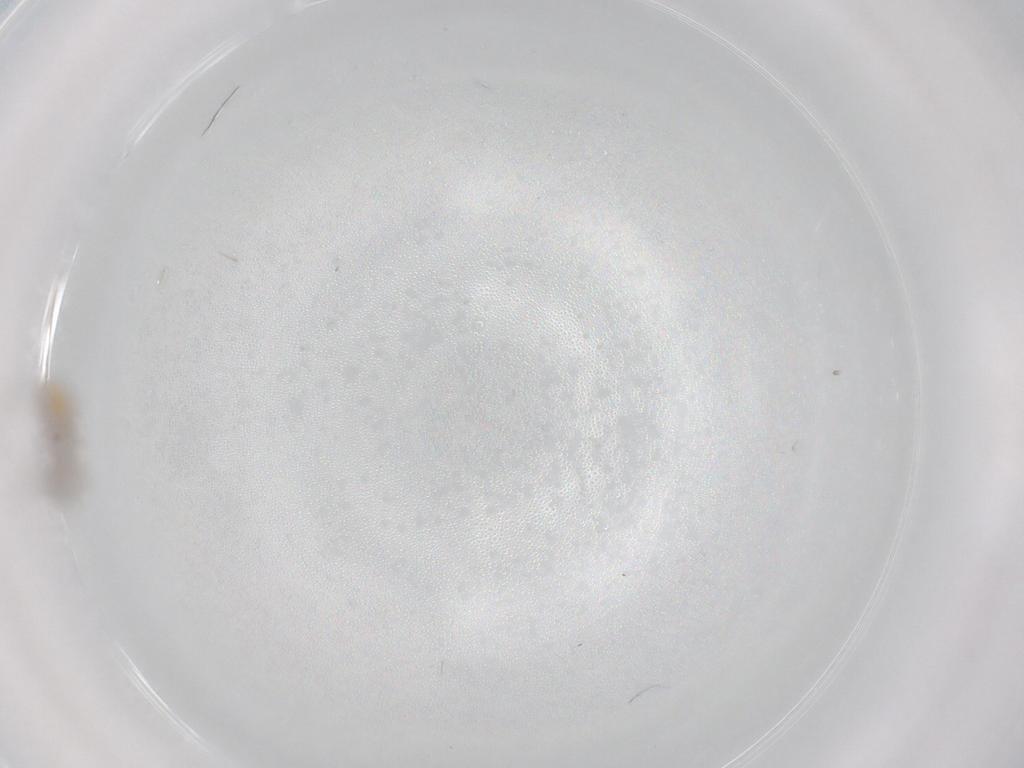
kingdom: Animalia
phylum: Arthropoda
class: Insecta
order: Diptera
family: Cecidomyiidae
